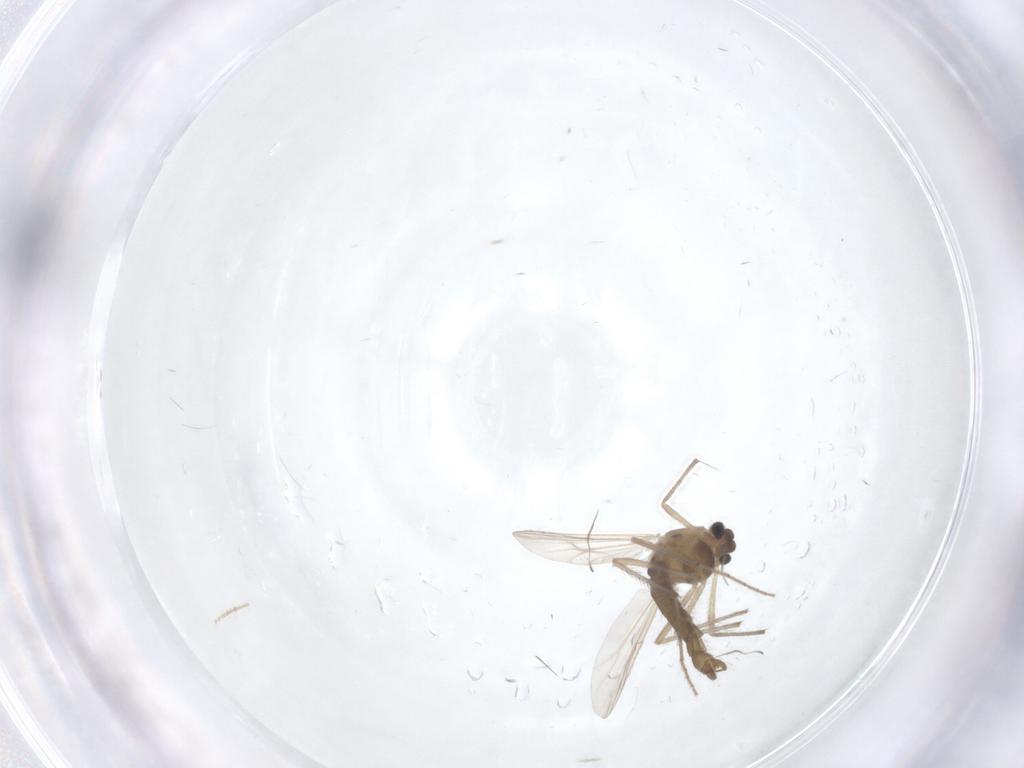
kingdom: Animalia
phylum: Arthropoda
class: Insecta
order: Diptera
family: Chironomidae
